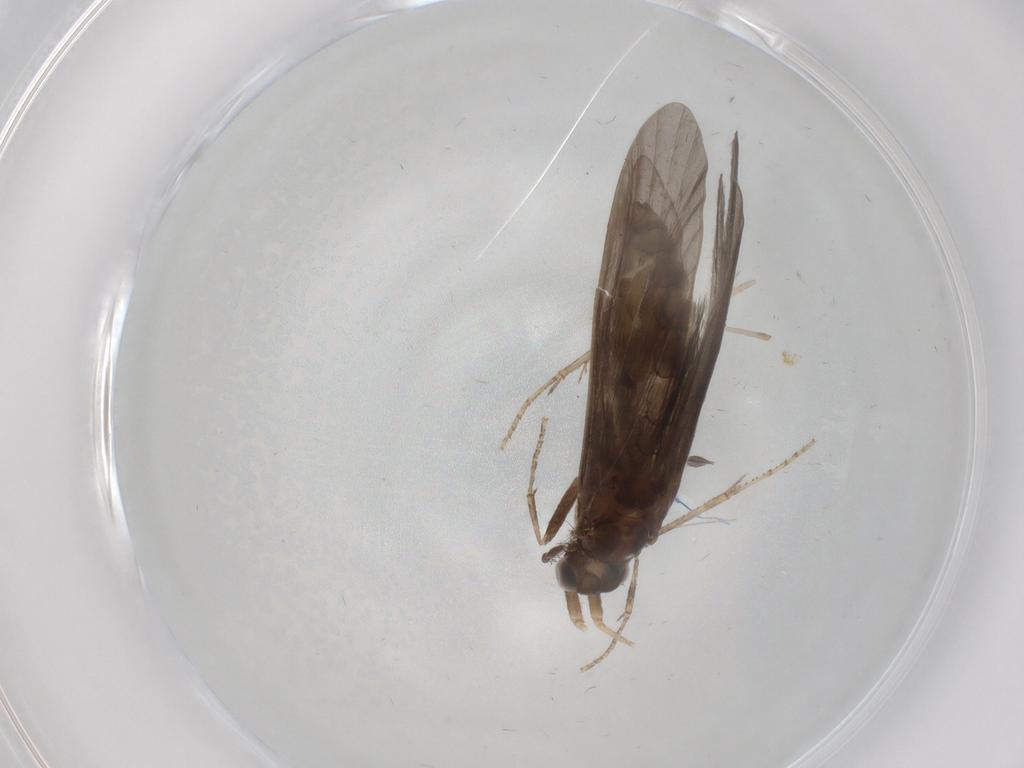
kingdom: Animalia
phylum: Arthropoda
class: Insecta
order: Trichoptera
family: Helicopsychidae
